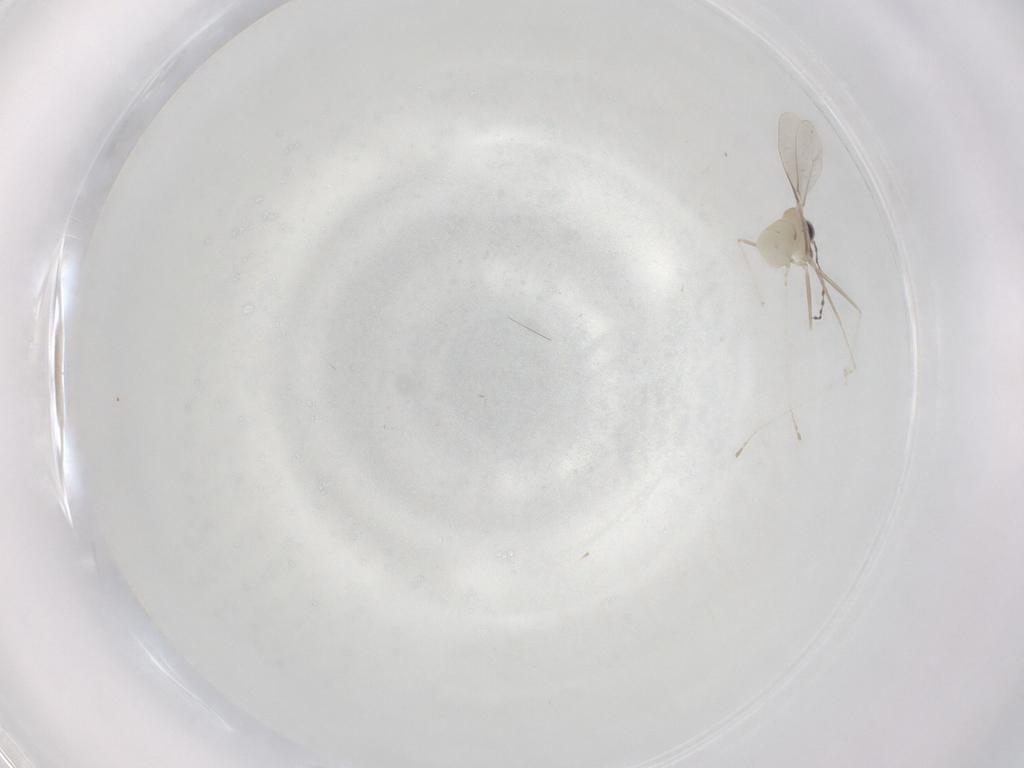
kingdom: Animalia
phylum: Arthropoda
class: Insecta
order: Diptera
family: Cecidomyiidae
